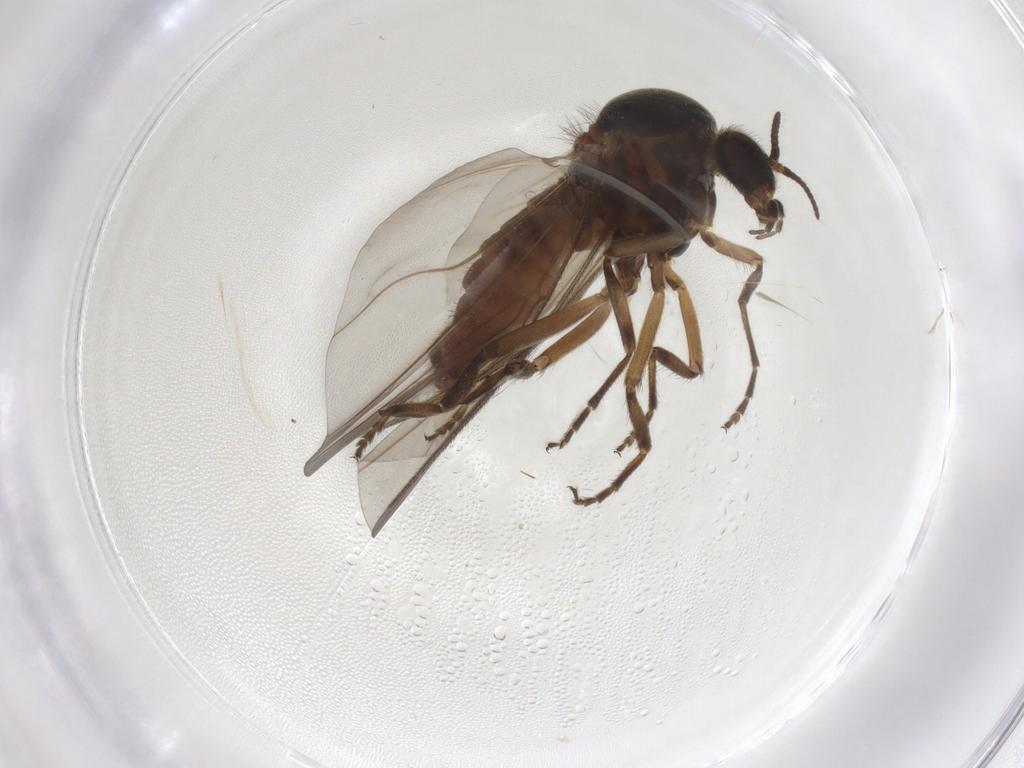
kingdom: Animalia
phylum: Arthropoda
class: Insecta
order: Diptera
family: Simuliidae
